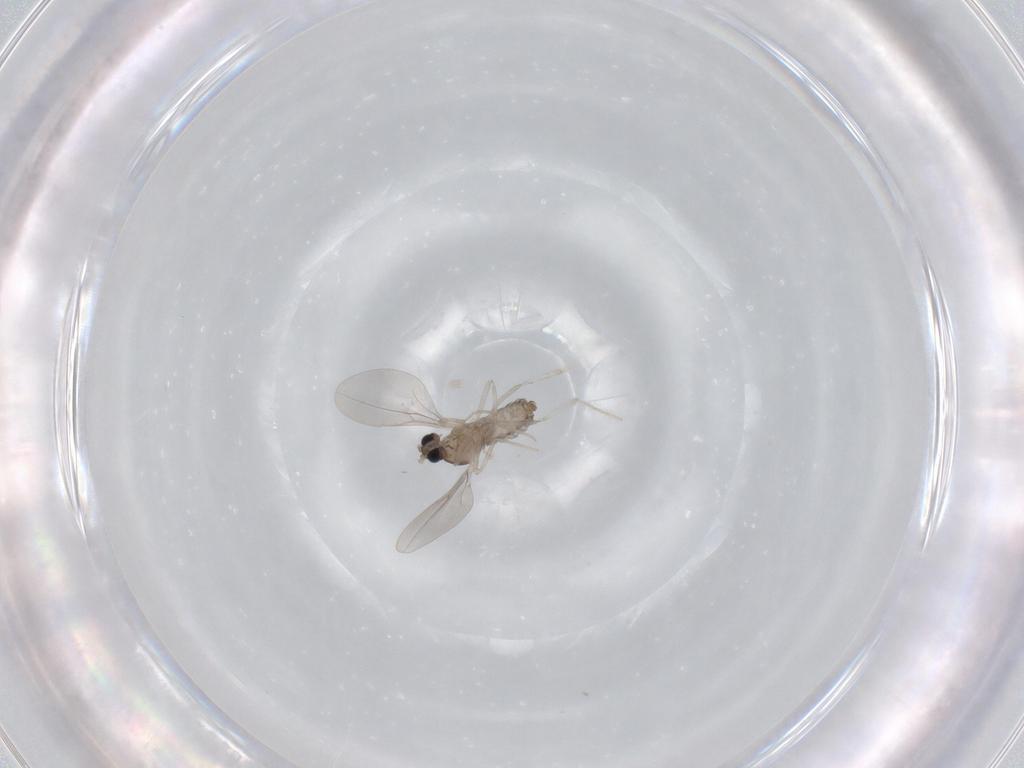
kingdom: Animalia
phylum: Arthropoda
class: Insecta
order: Diptera
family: Cecidomyiidae
